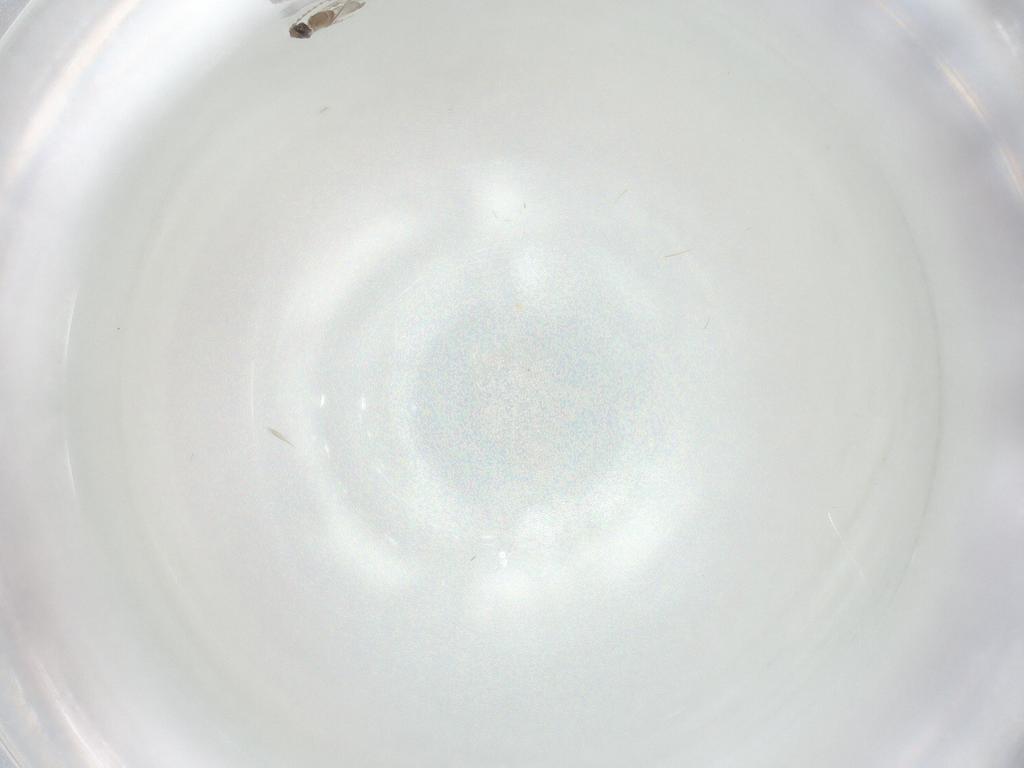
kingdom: Animalia
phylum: Arthropoda
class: Insecta
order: Diptera
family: Cecidomyiidae
